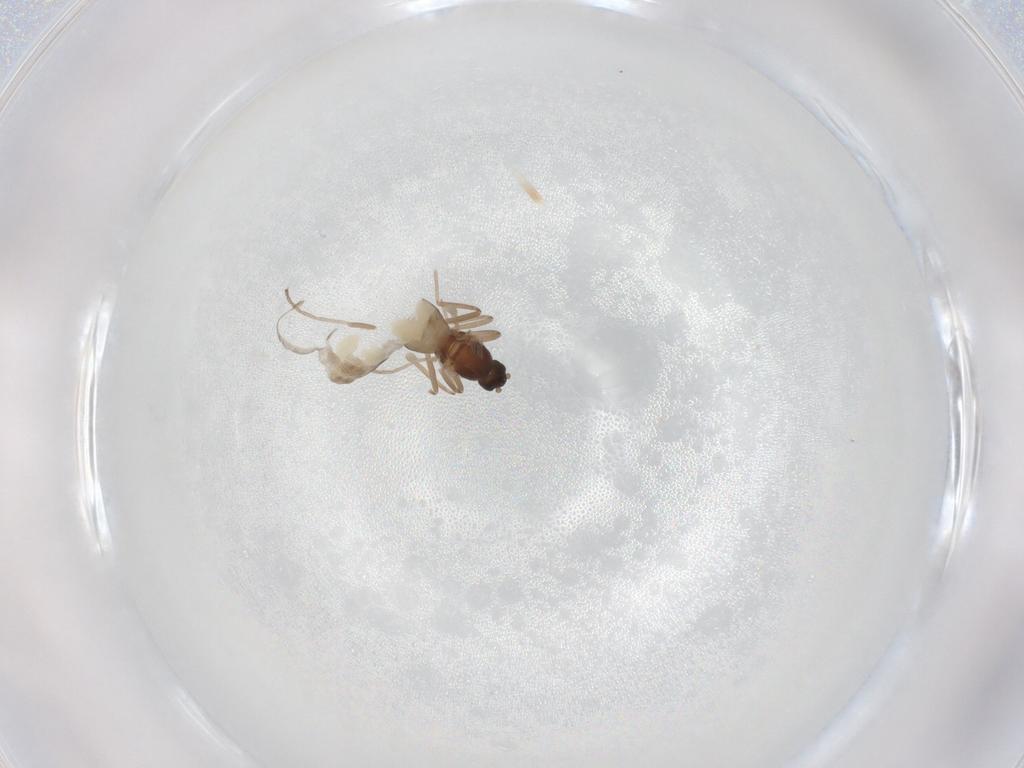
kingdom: Animalia
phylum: Arthropoda
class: Insecta
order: Diptera
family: Cecidomyiidae
